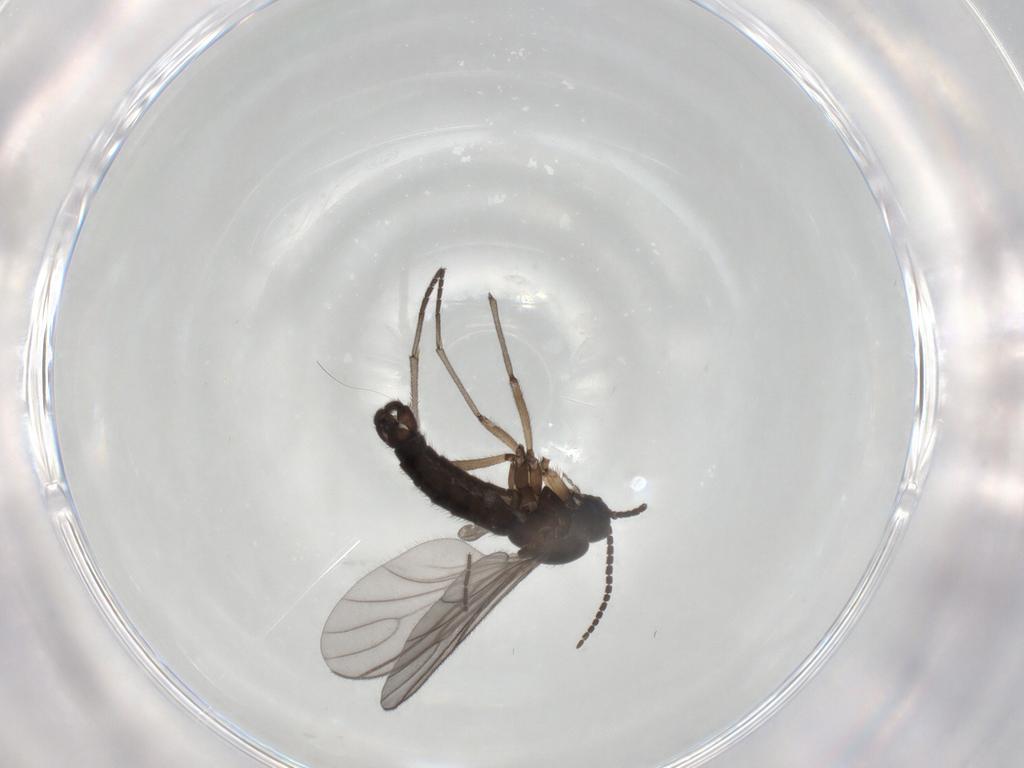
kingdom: Animalia
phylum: Arthropoda
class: Insecta
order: Diptera
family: Sciaridae
